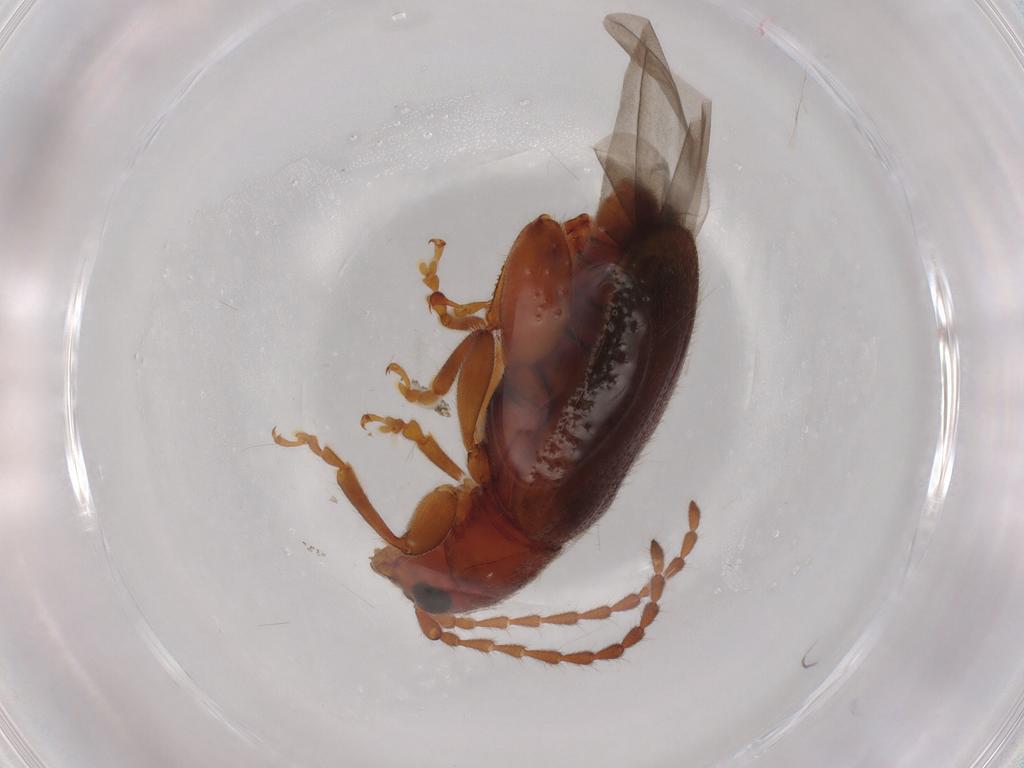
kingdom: Animalia
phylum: Arthropoda
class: Insecta
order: Coleoptera
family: Chrysomelidae
